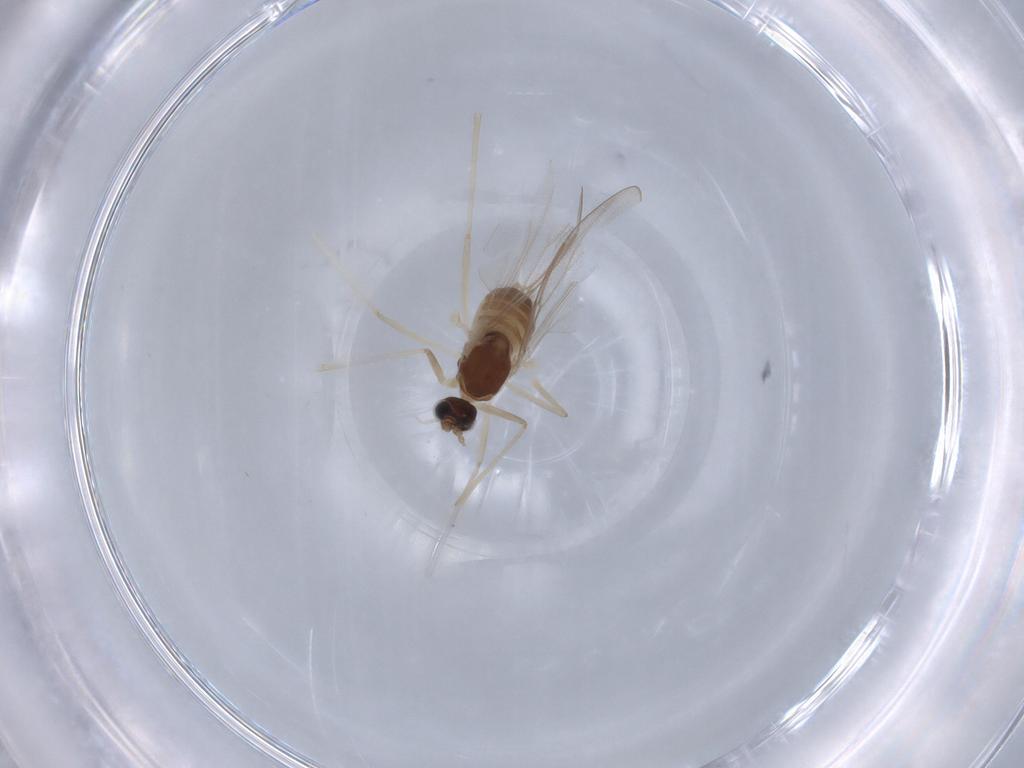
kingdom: Animalia
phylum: Arthropoda
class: Insecta
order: Diptera
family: Cecidomyiidae
